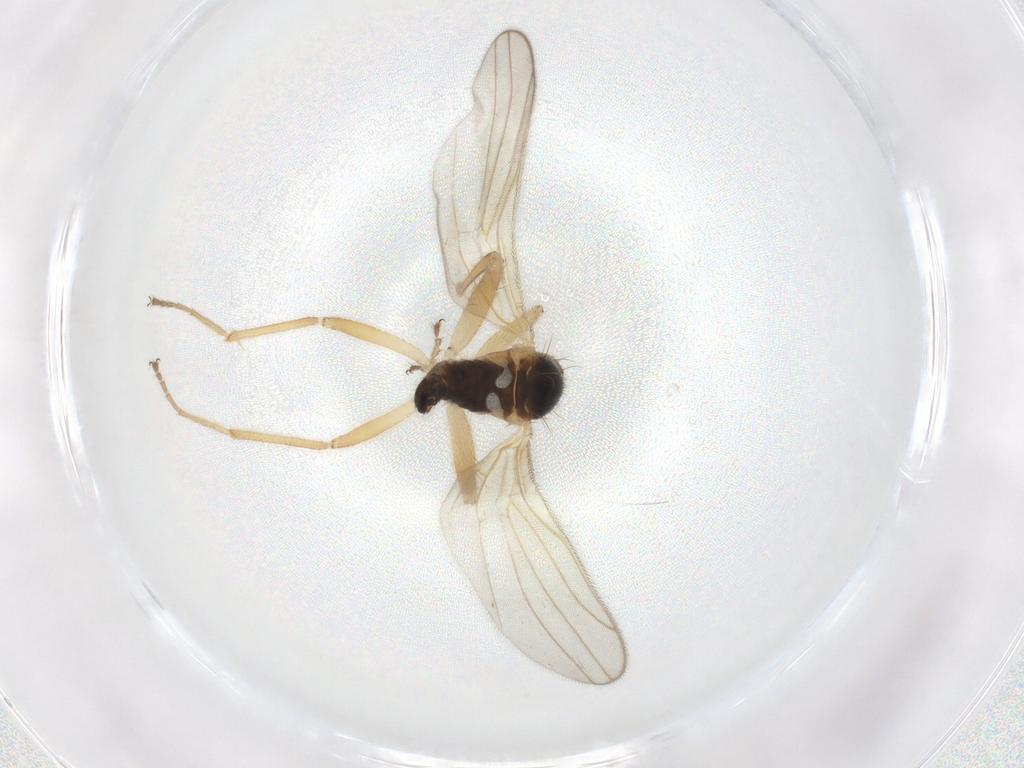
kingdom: Animalia
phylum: Arthropoda
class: Insecta
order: Diptera
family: Hybotidae
